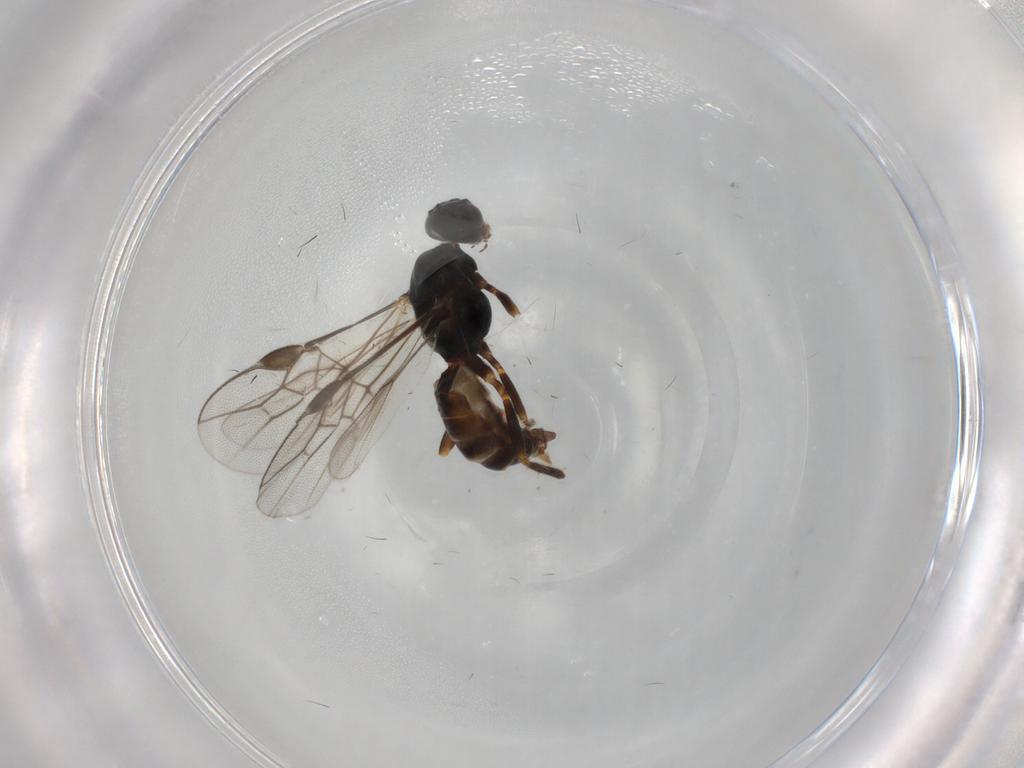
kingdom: Animalia
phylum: Arthropoda
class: Insecta
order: Hymenoptera
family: Braconidae
